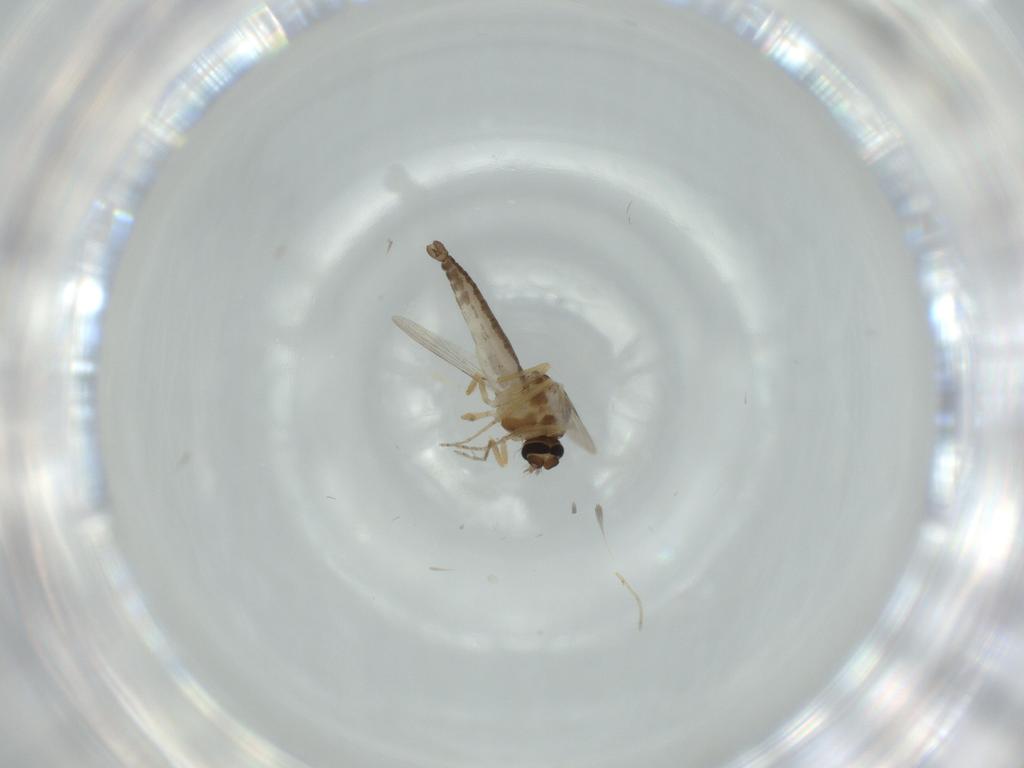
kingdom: Animalia
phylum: Arthropoda
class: Insecta
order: Diptera
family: Ceratopogonidae
